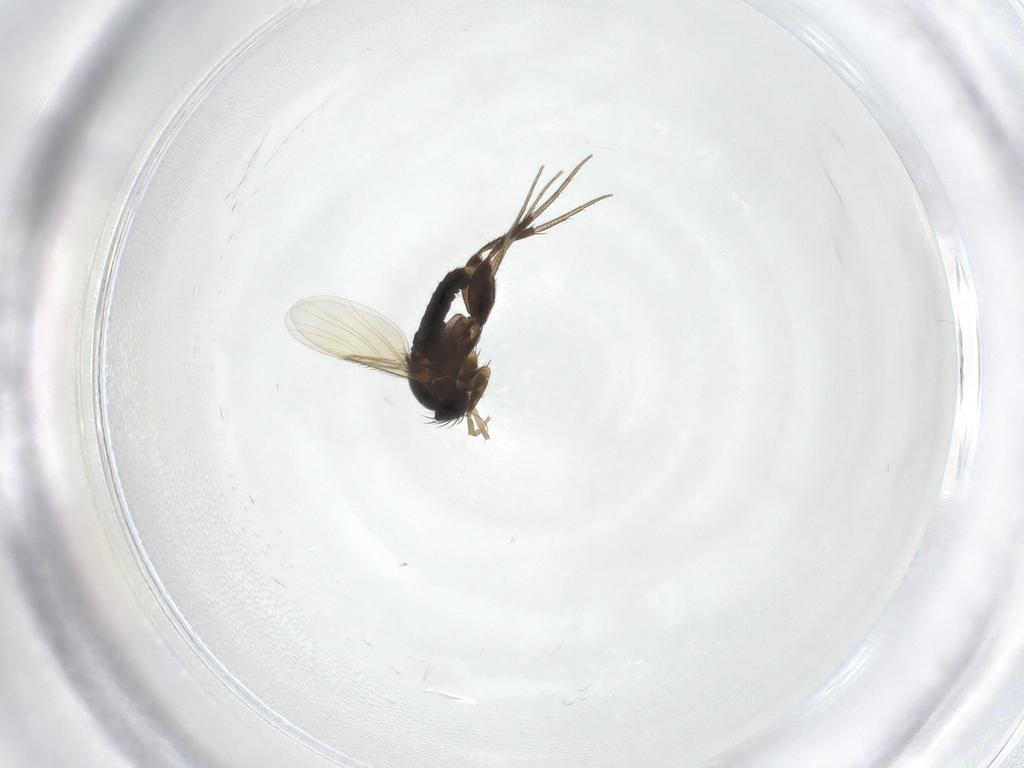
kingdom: Animalia
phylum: Arthropoda
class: Insecta
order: Diptera
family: Phoridae
